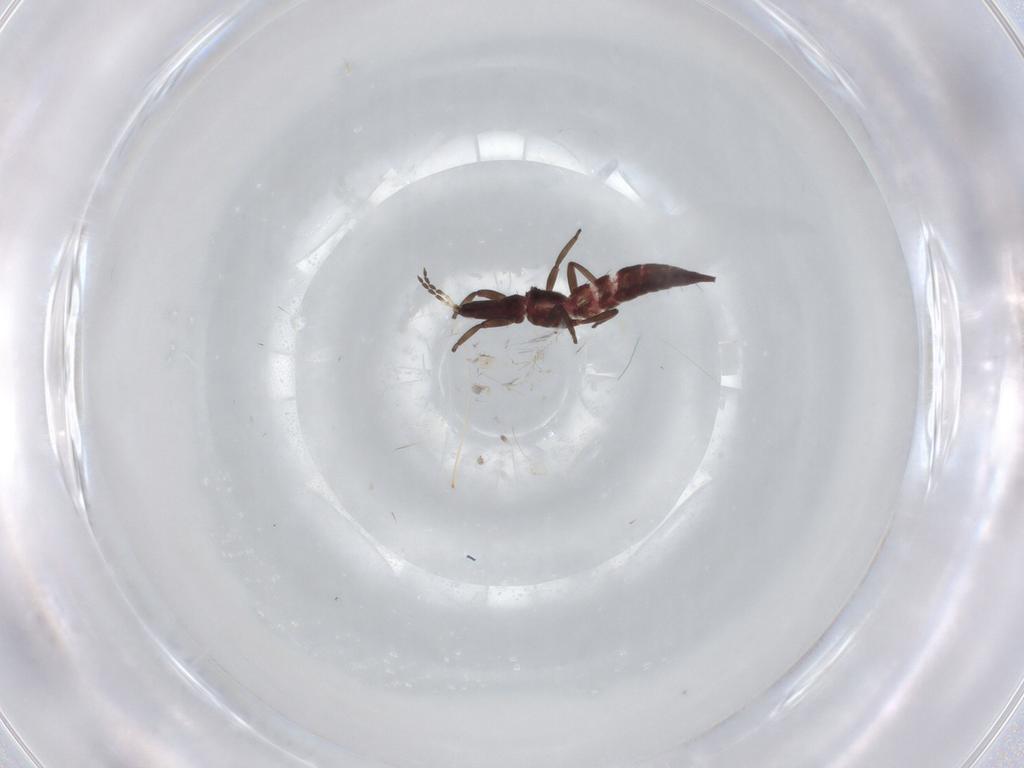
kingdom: Animalia
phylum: Arthropoda
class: Insecta
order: Thysanoptera
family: Phlaeothripidae
